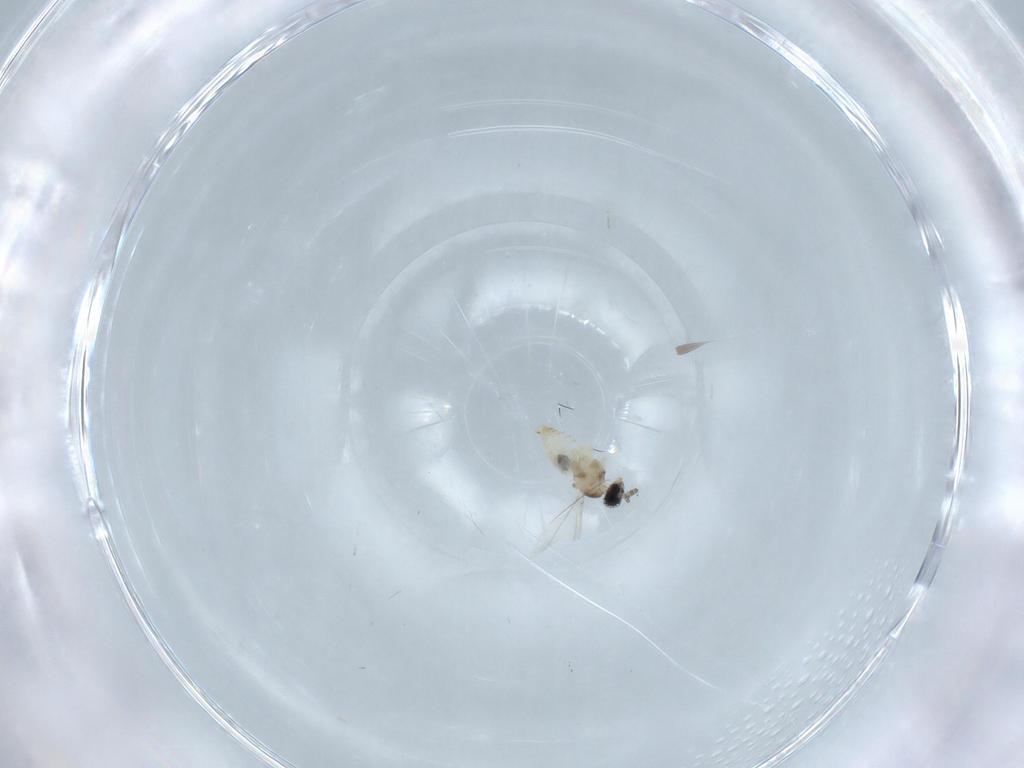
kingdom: Animalia
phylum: Arthropoda
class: Insecta
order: Diptera
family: Cecidomyiidae
